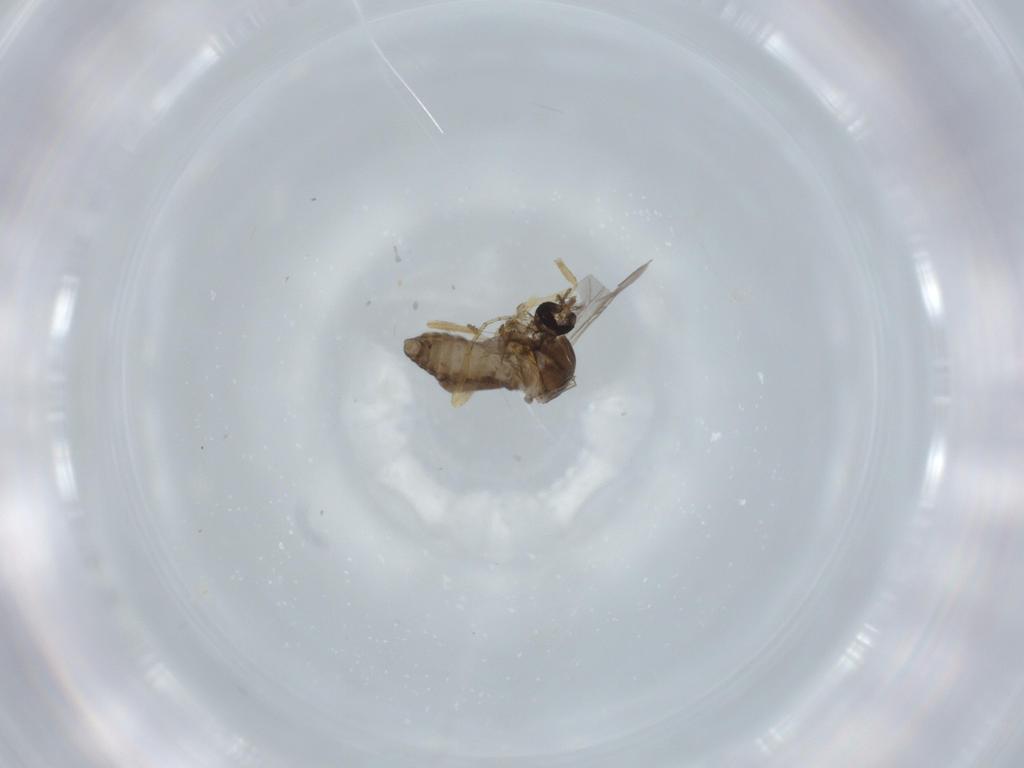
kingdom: Animalia
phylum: Arthropoda
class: Insecta
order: Diptera
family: Ceratopogonidae
